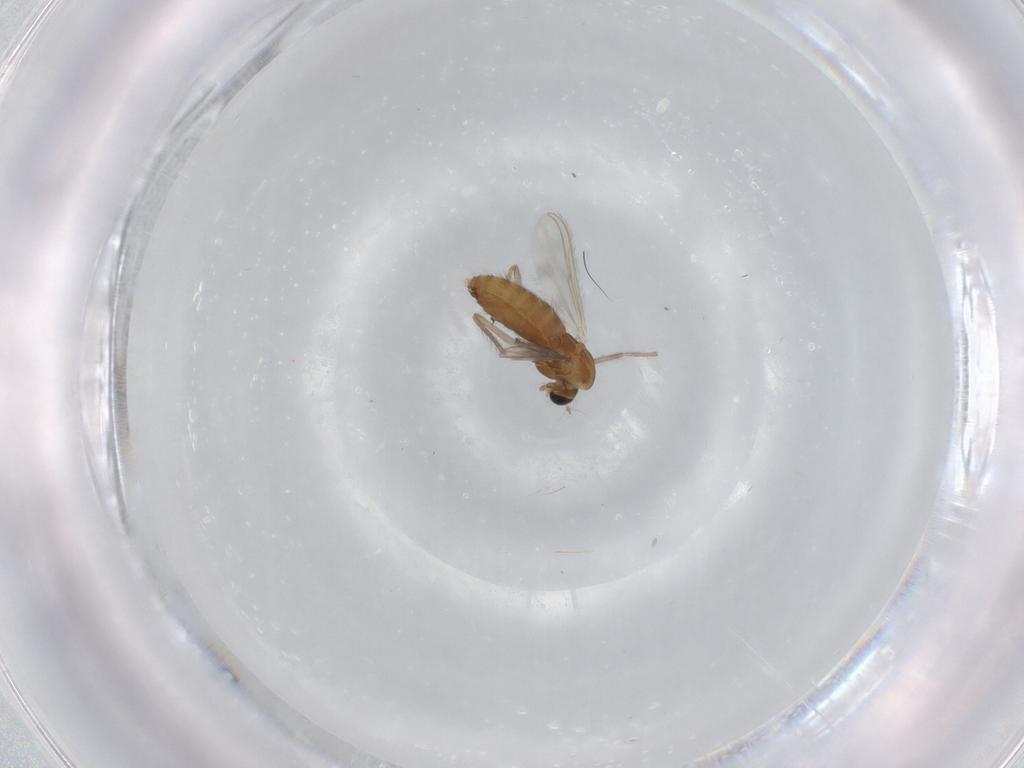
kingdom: Animalia
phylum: Arthropoda
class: Insecta
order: Diptera
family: Chironomidae
